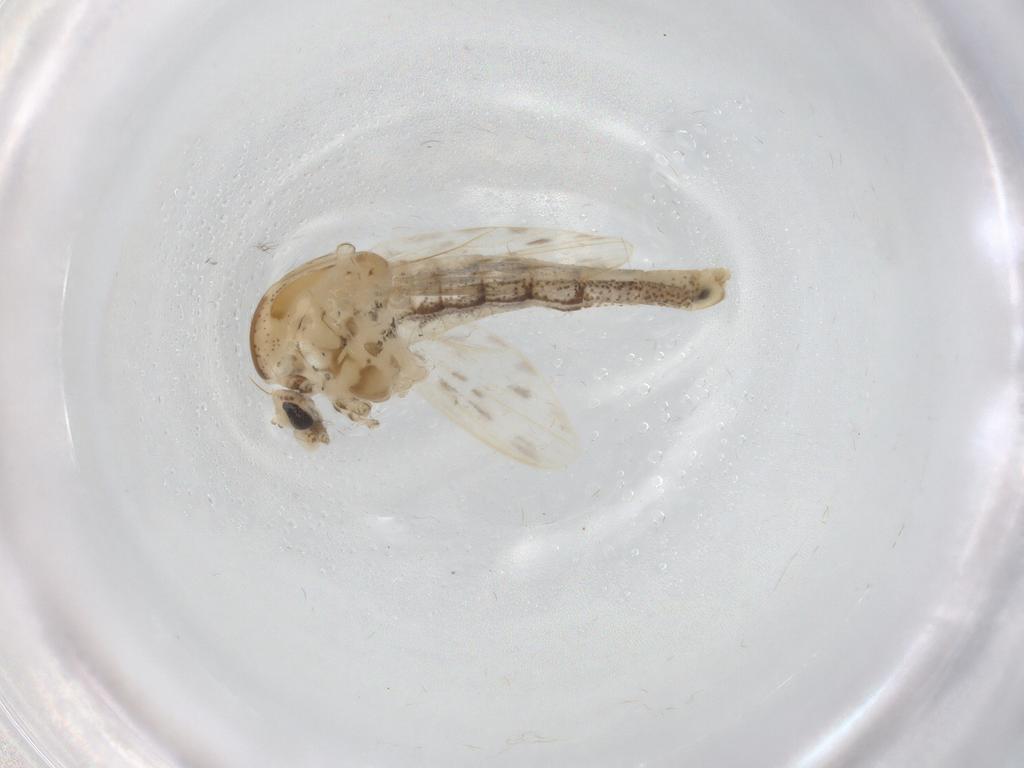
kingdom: Animalia
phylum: Arthropoda
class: Insecta
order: Diptera
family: Chaoboridae
